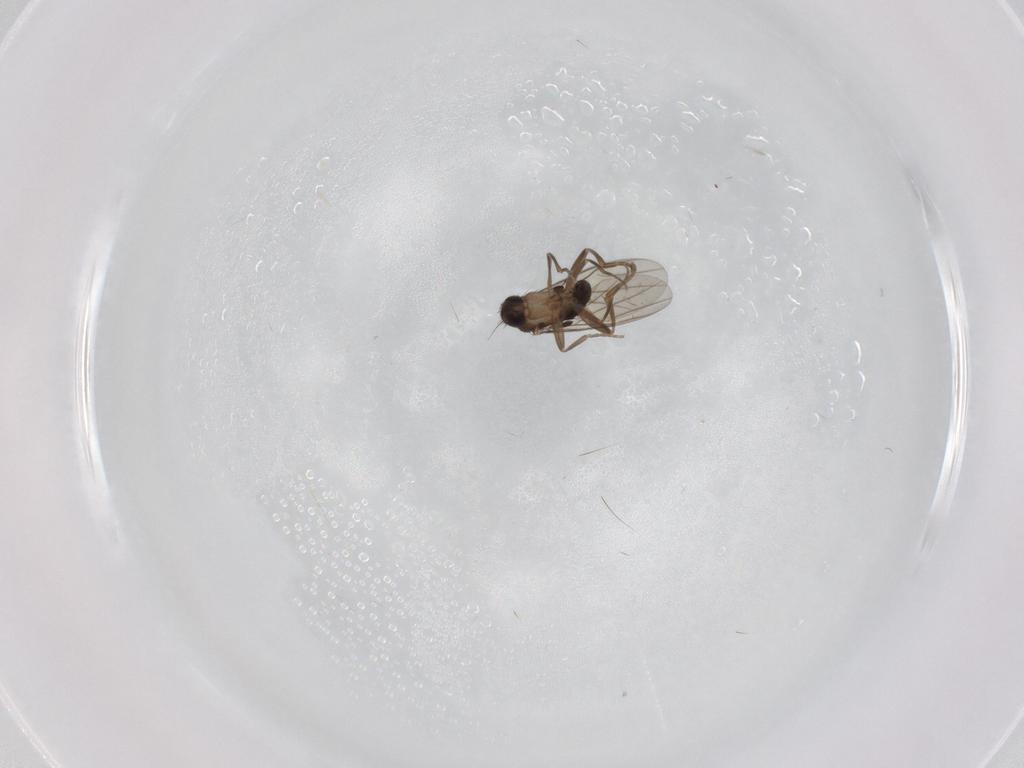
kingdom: Animalia
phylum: Arthropoda
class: Insecta
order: Diptera
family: Phoridae
